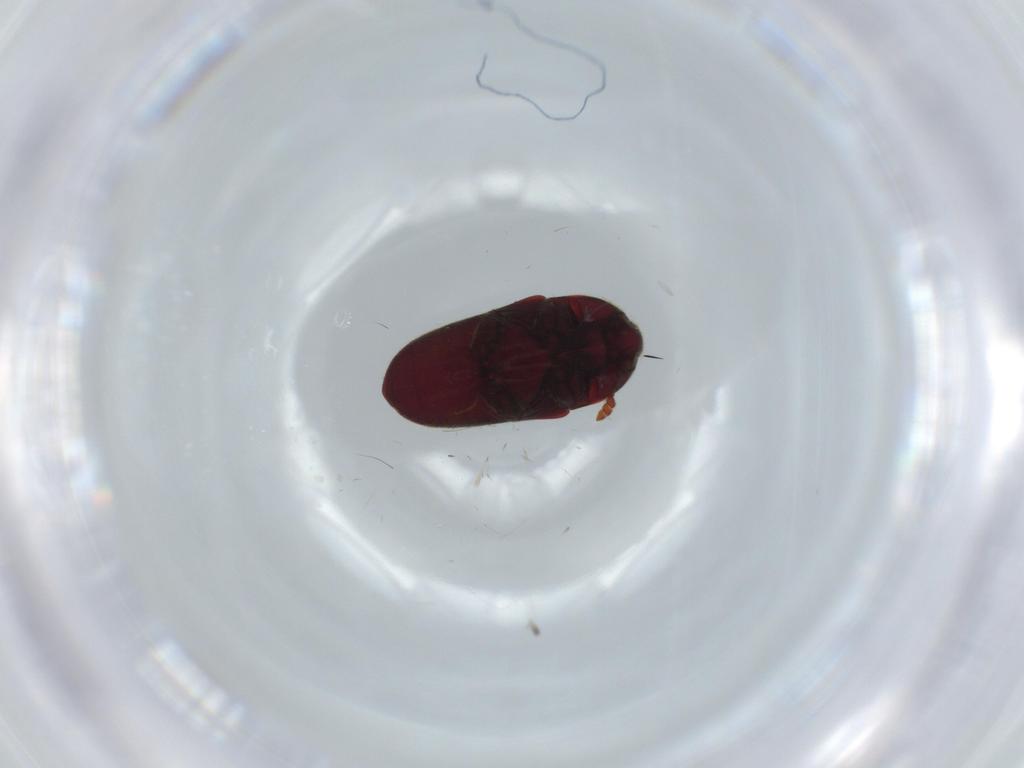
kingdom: Animalia
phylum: Arthropoda
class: Insecta
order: Coleoptera
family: Throscidae
